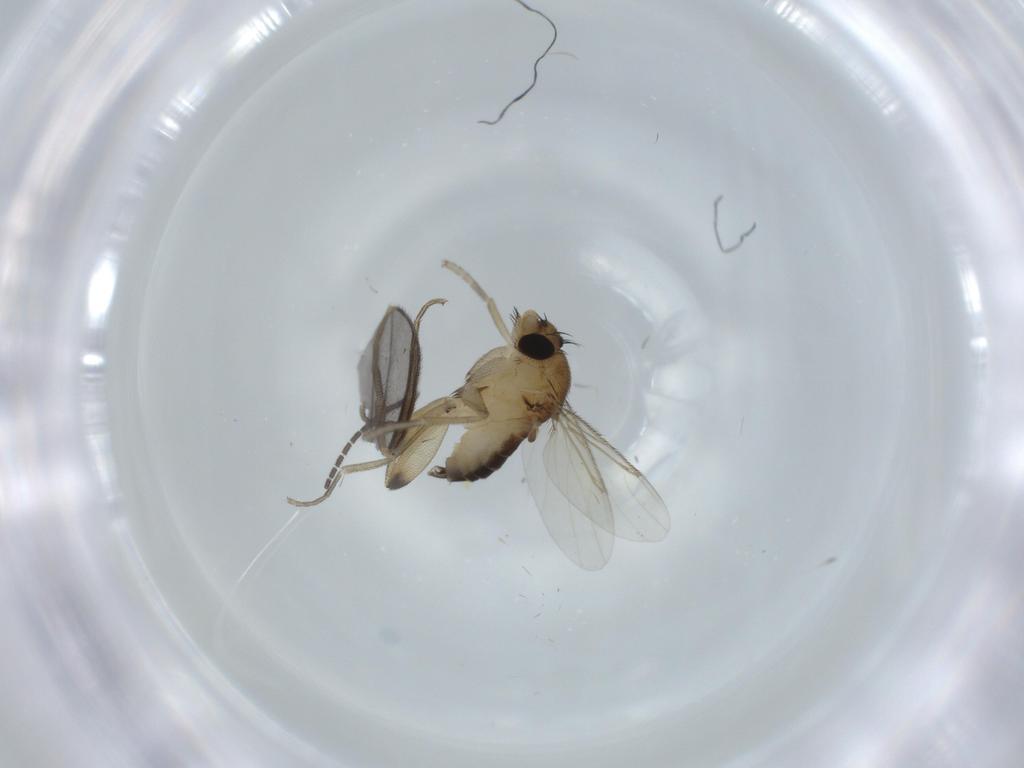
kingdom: Animalia
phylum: Arthropoda
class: Insecta
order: Diptera
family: Phoridae
